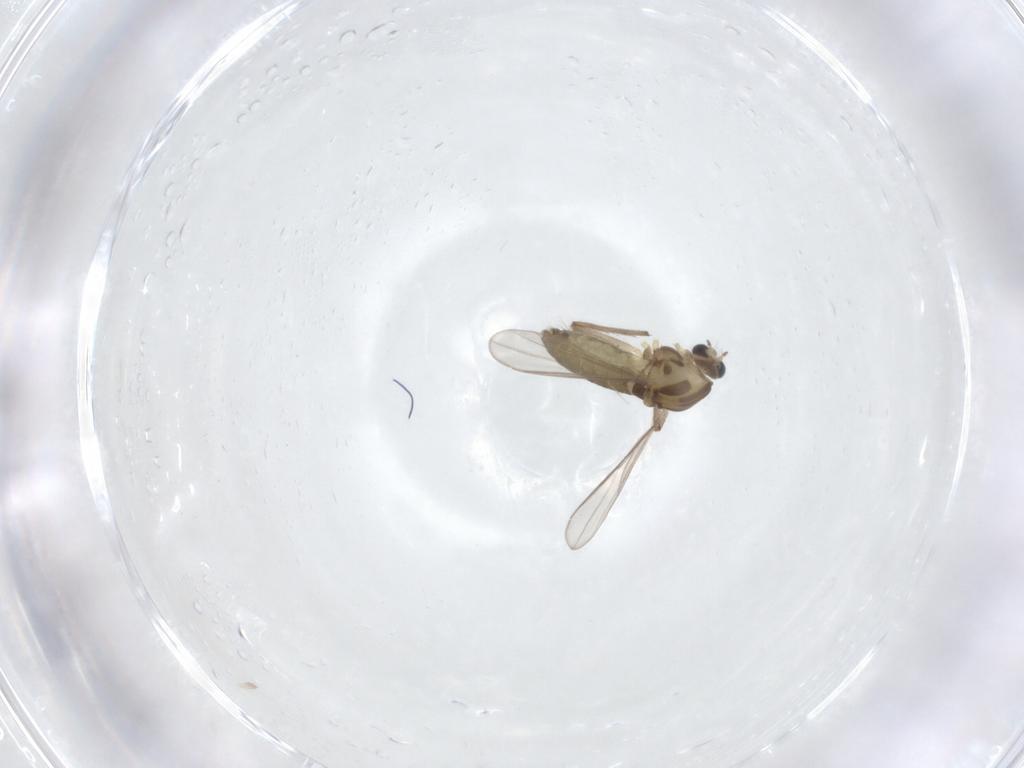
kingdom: Animalia
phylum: Arthropoda
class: Insecta
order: Diptera
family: Chironomidae
